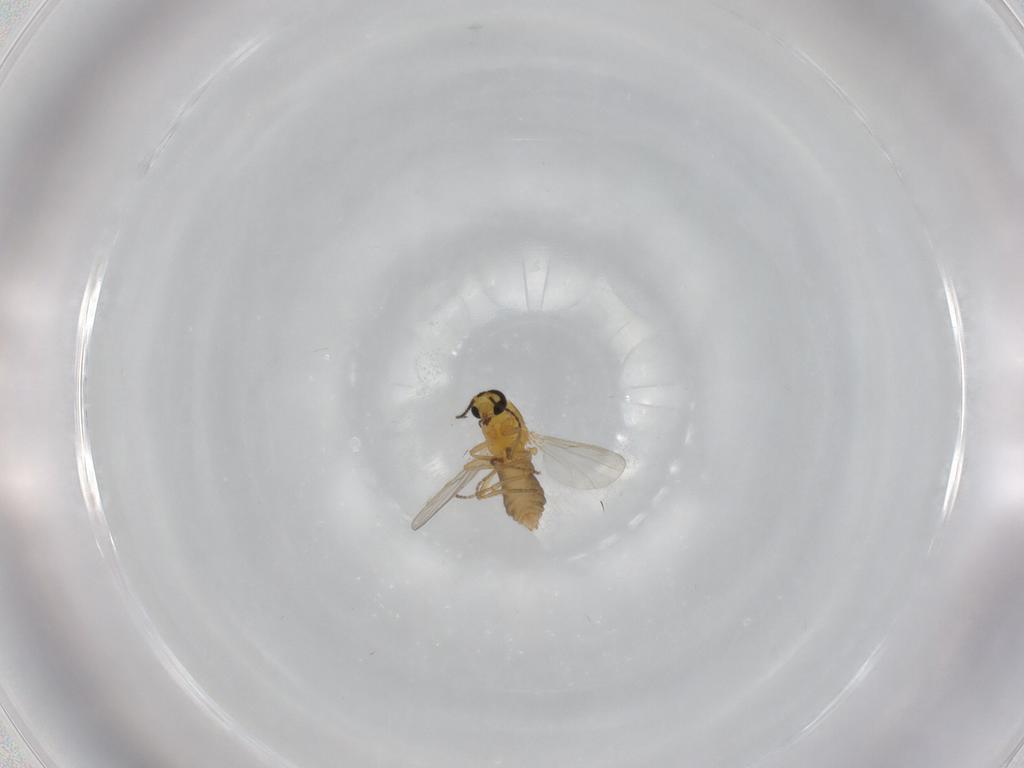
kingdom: Animalia
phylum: Arthropoda
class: Insecta
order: Diptera
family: Ceratopogonidae
